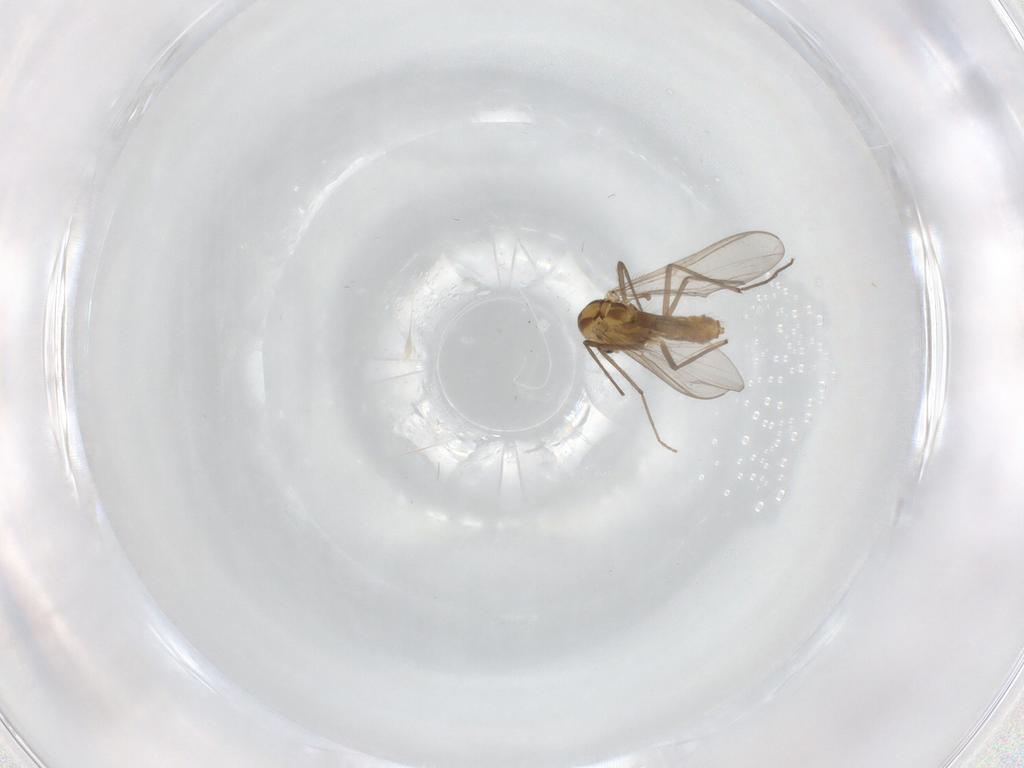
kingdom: Animalia
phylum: Arthropoda
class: Insecta
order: Diptera
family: Chironomidae
